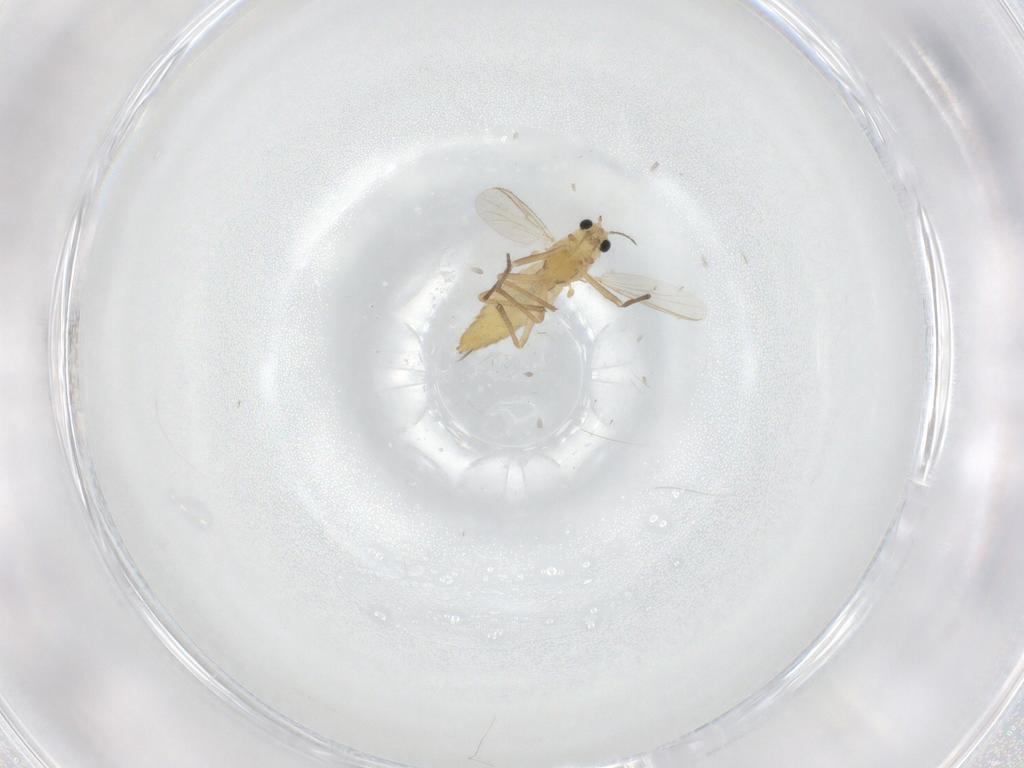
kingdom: Animalia
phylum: Arthropoda
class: Insecta
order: Diptera
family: Chironomidae
